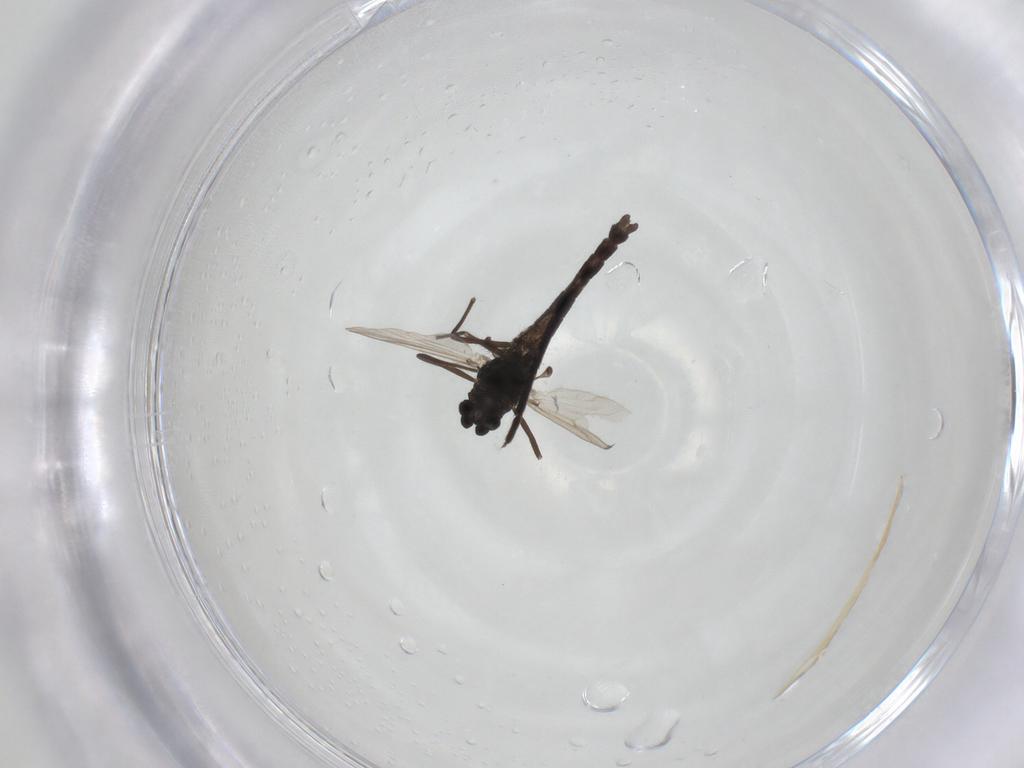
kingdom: Animalia
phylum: Arthropoda
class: Insecta
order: Diptera
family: Chironomidae
